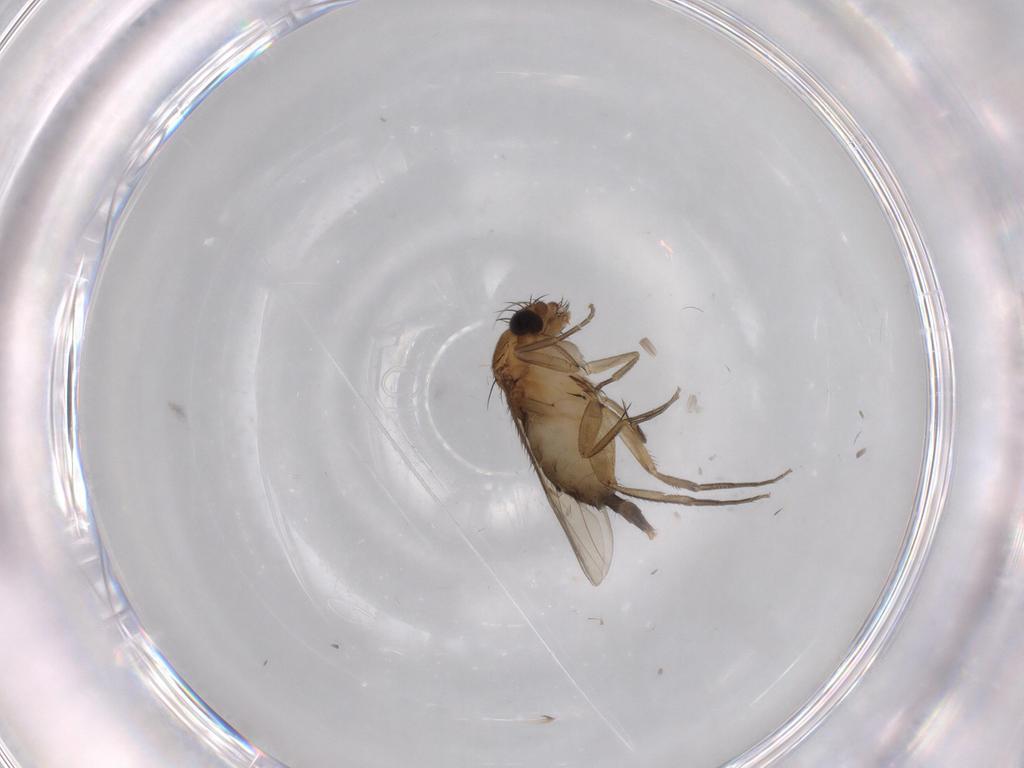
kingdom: Animalia
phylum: Arthropoda
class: Insecta
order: Diptera
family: Phoridae
